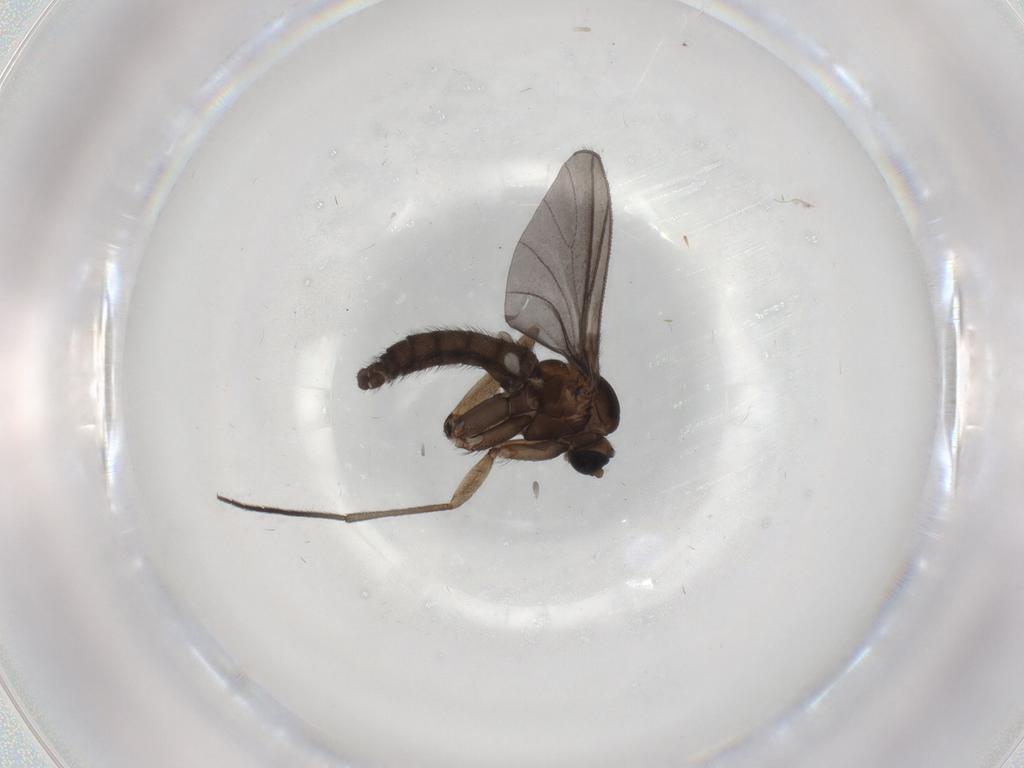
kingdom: Animalia
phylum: Arthropoda
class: Insecta
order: Diptera
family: Sciaridae
